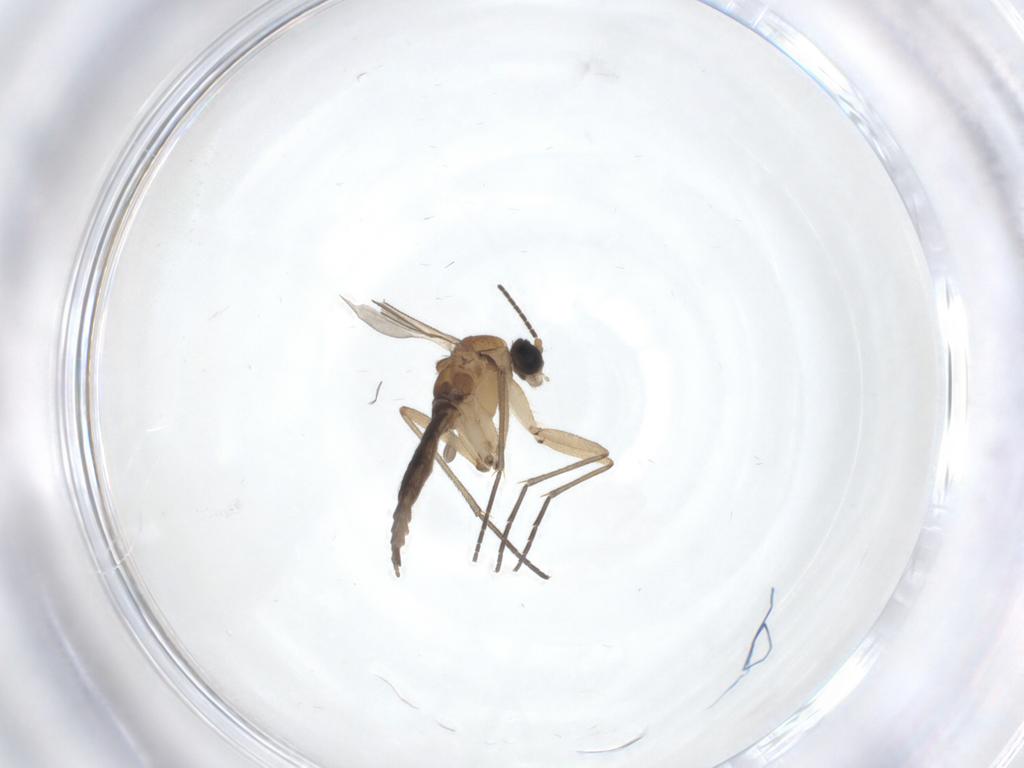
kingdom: Animalia
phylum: Arthropoda
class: Insecta
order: Diptera
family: Sciaridae
